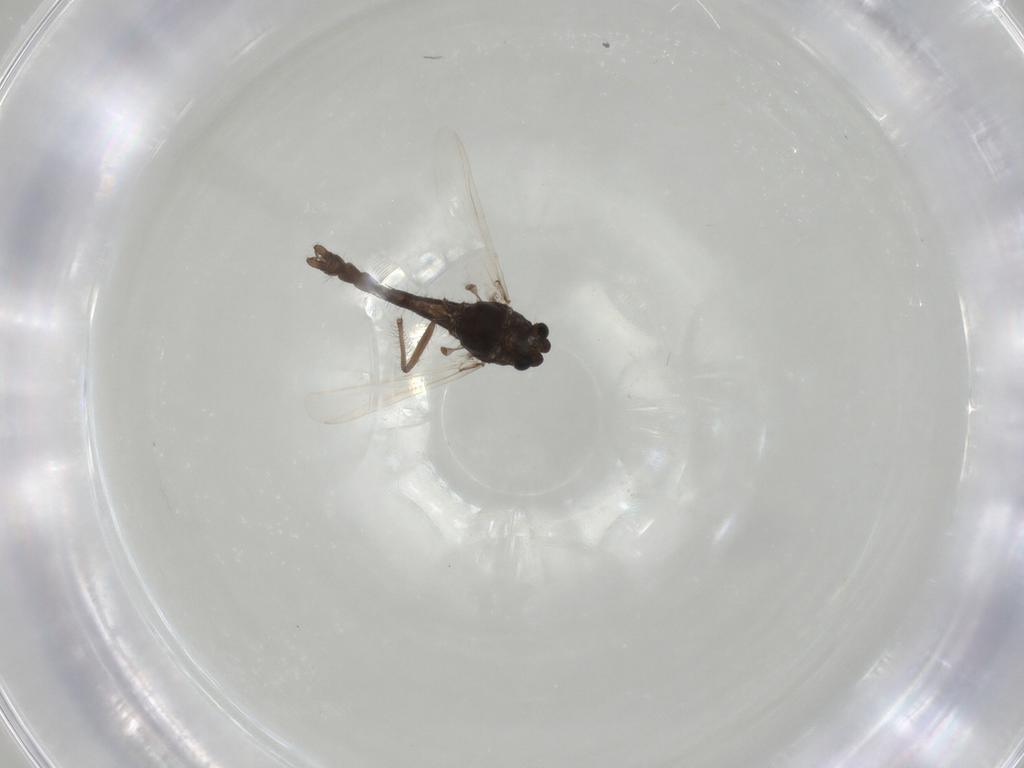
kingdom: Animalia
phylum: Arthropoda
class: Insecta
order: Diptera
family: Chironomidae
